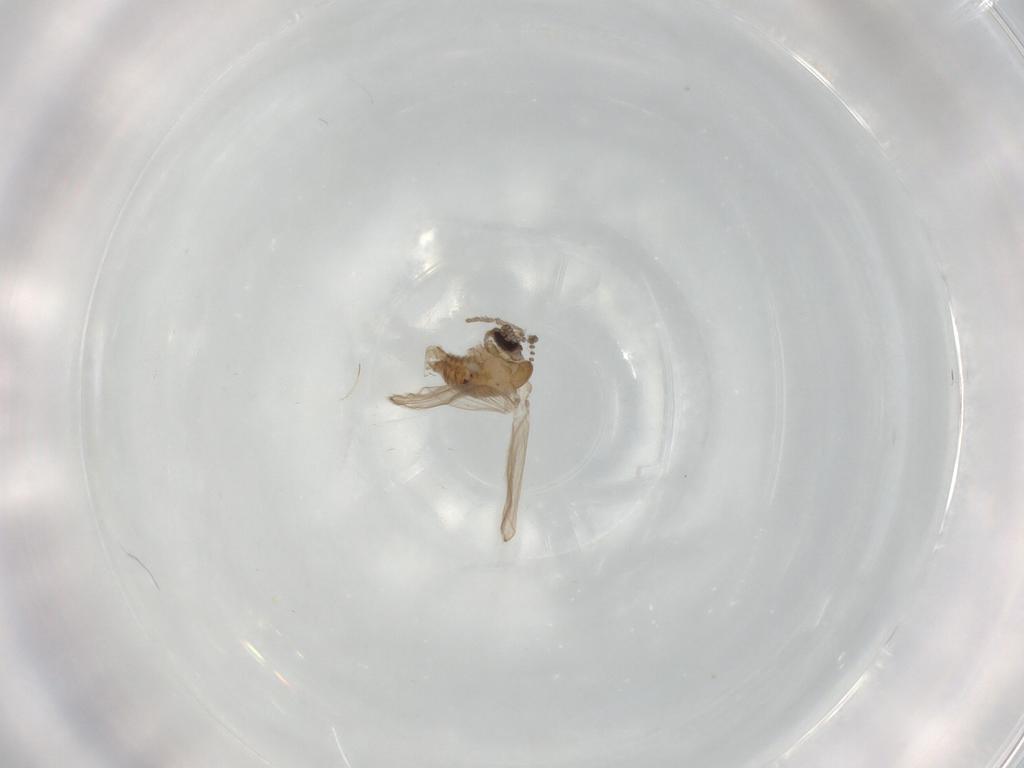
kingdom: Animalia
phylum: Arthropoda
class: Insecta
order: Diptera
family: Psychodidae
